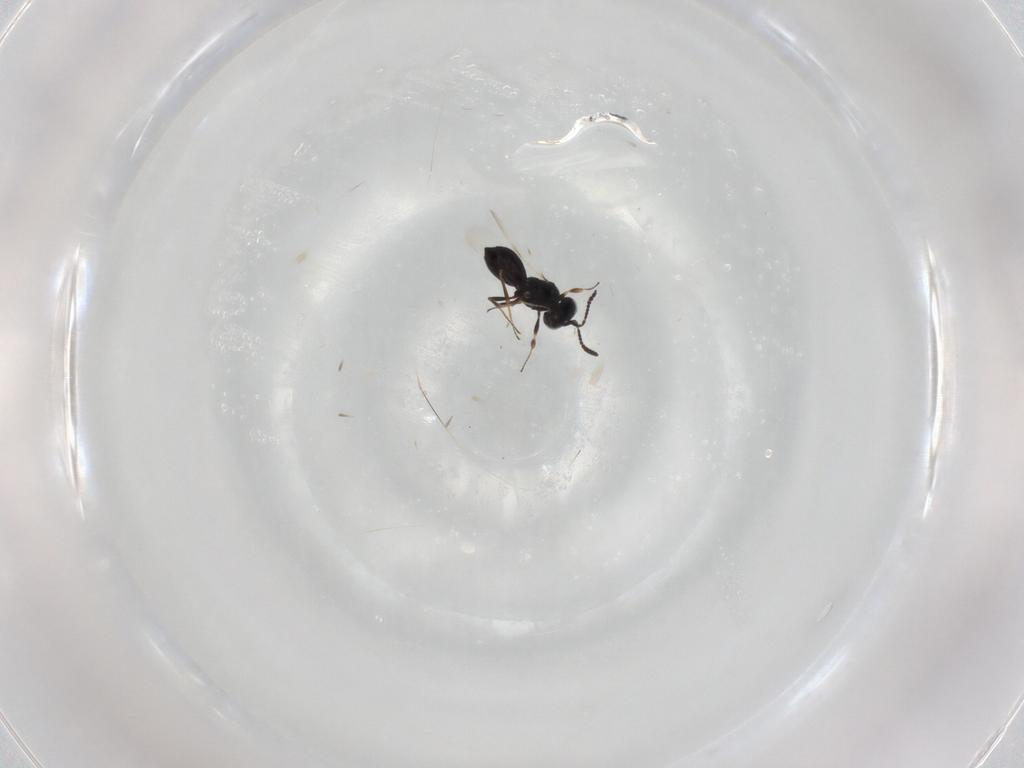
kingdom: Animalia
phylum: Arthropoda
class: Insecta
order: Hymenoptera
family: Scelionidae
